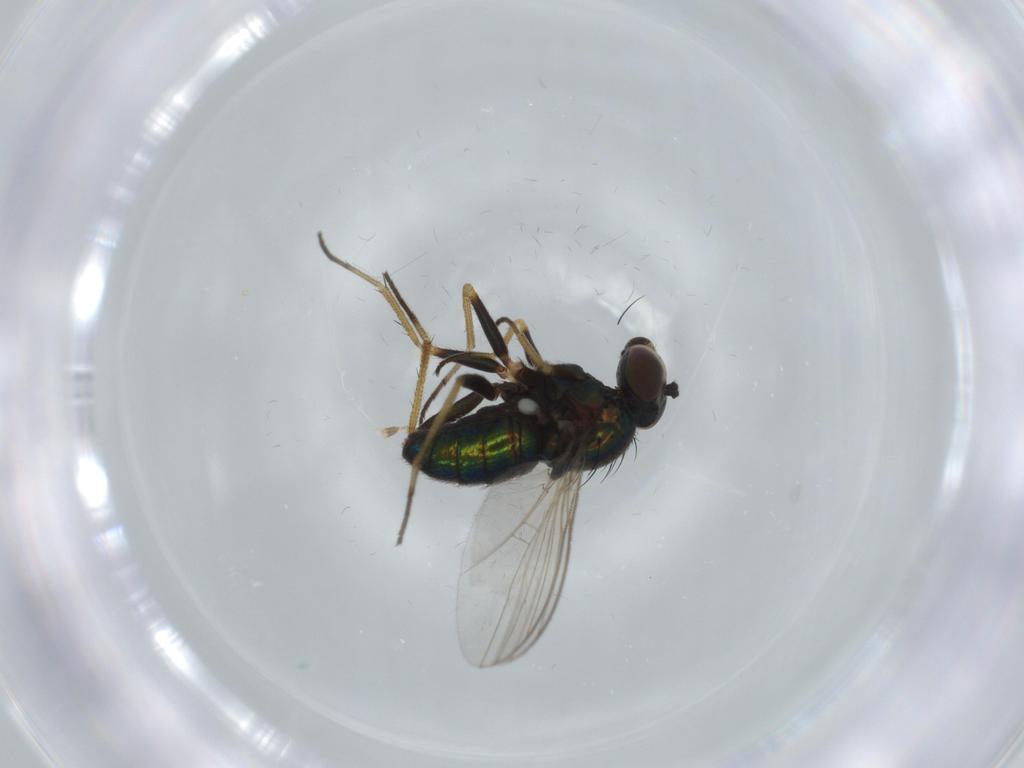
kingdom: Animalia
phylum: Arthropoda
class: Insecta
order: Diptera
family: Dolichopodidae
